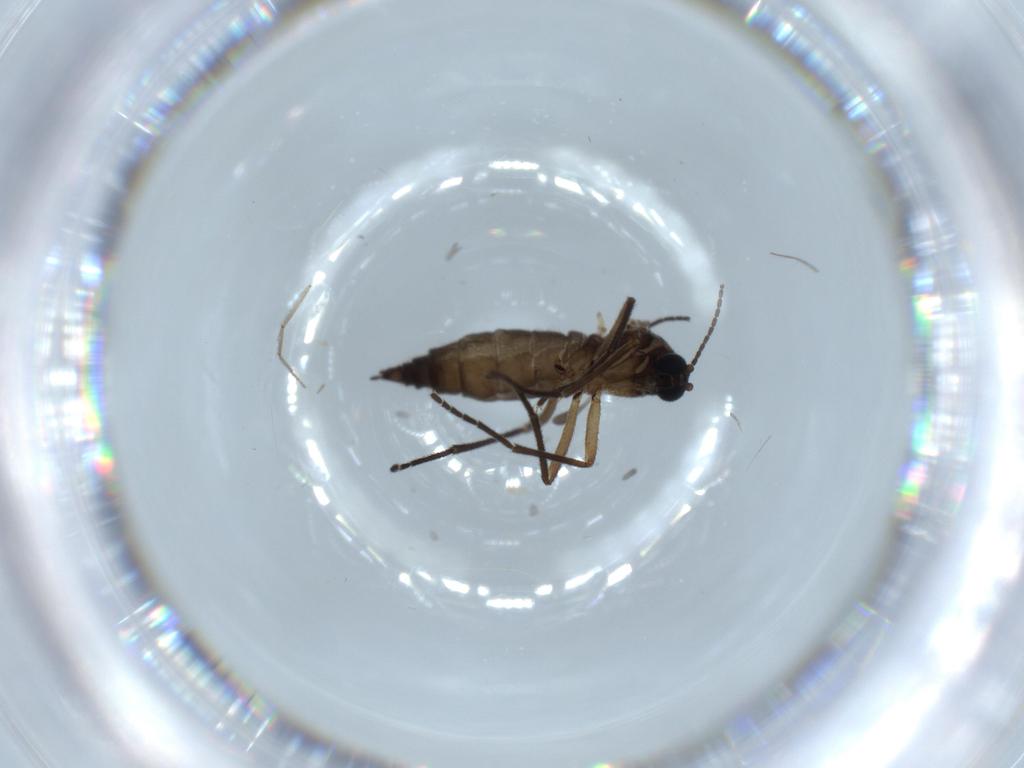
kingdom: Animalia
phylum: Arthropoda
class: Insecta
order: Diptera
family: Sciaridae
